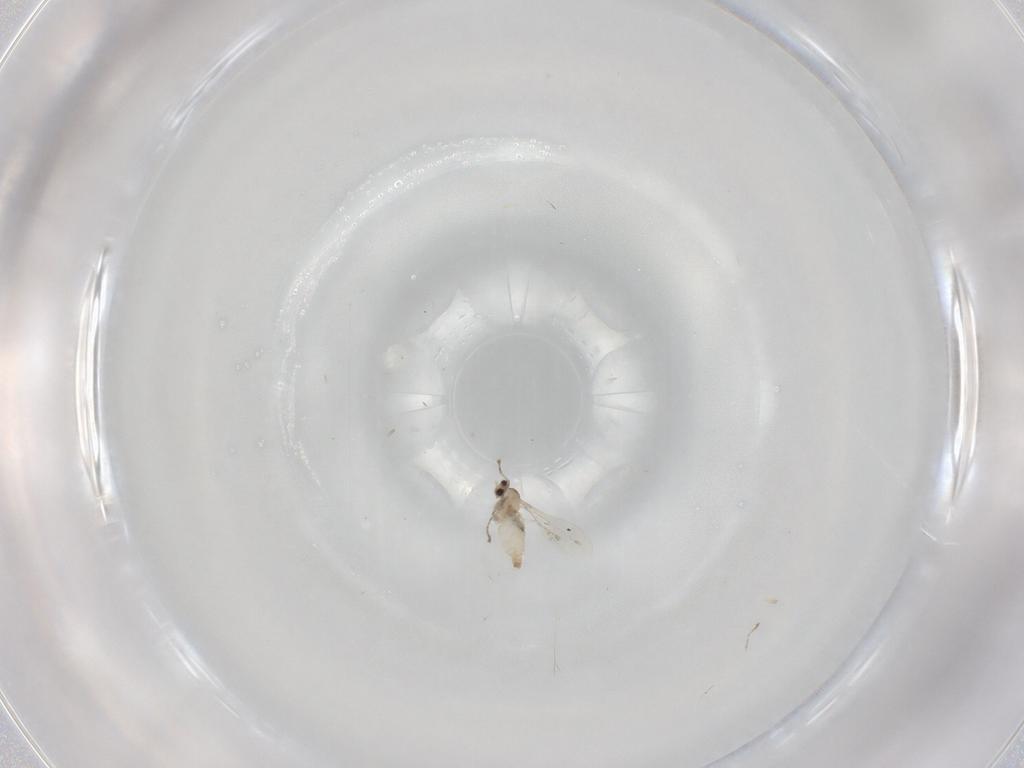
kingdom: Animalia
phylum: Arthropoda
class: Insecta
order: Diptera
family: Cecidomyiidae
